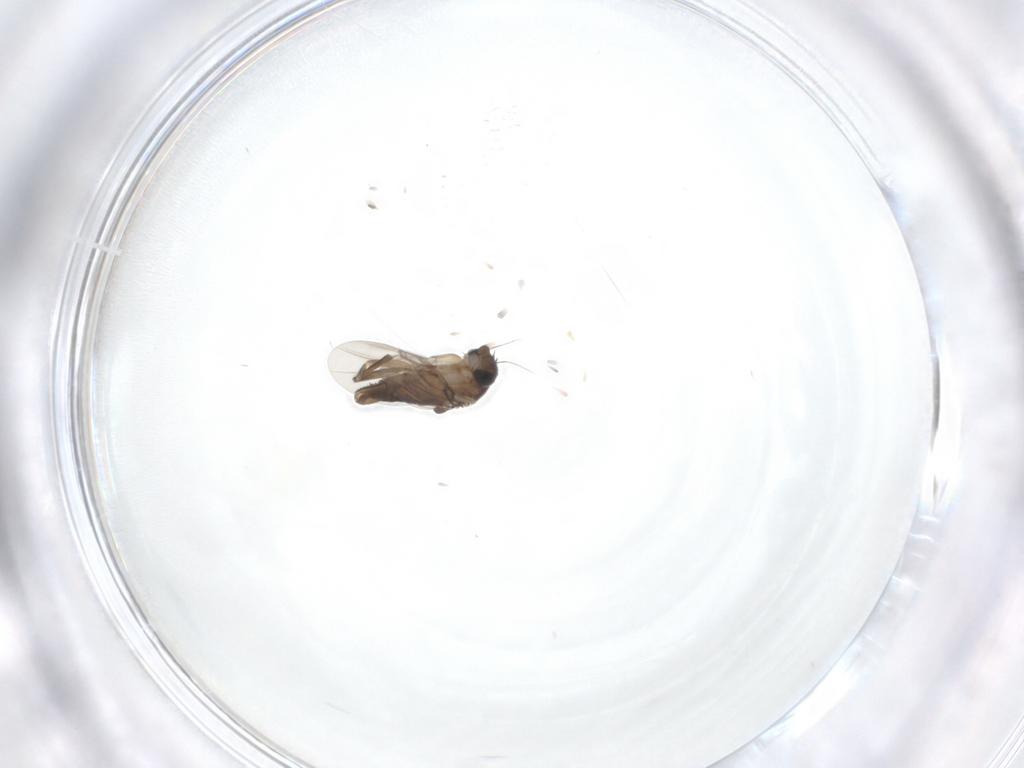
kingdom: Animalia
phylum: Arthropoda
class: Insecta
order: Diptera
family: Phoridae
